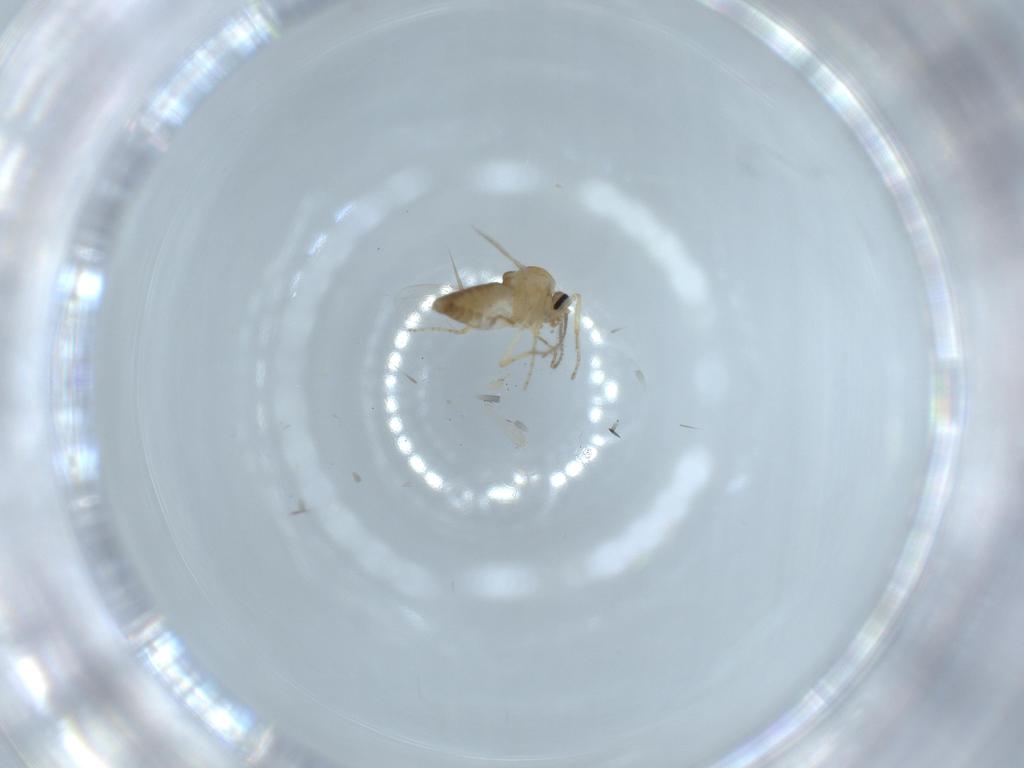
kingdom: Animalia
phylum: Arthropoda
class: Insecta
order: Diptera
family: Ceratopogonidae
